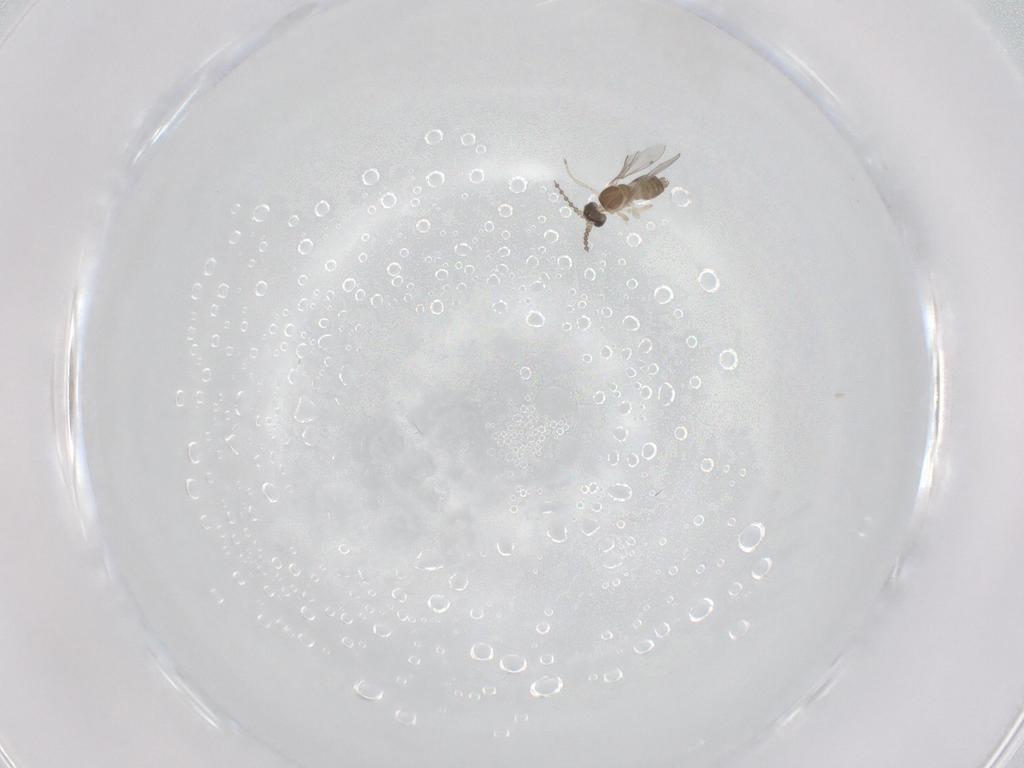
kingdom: Animalia
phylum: Arthropoda
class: Insecta
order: Diptera
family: Cecidomyiidae
